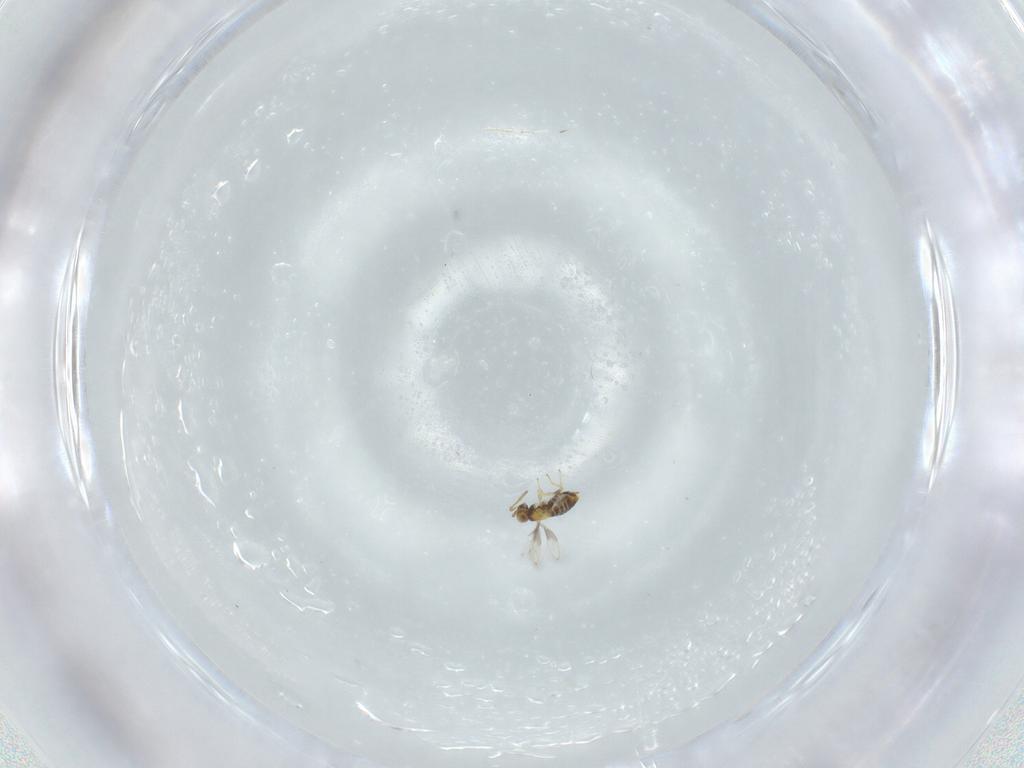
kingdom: Animalia
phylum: Arthropoda
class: Insecta
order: Hymenoptera
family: Aphelinidae
